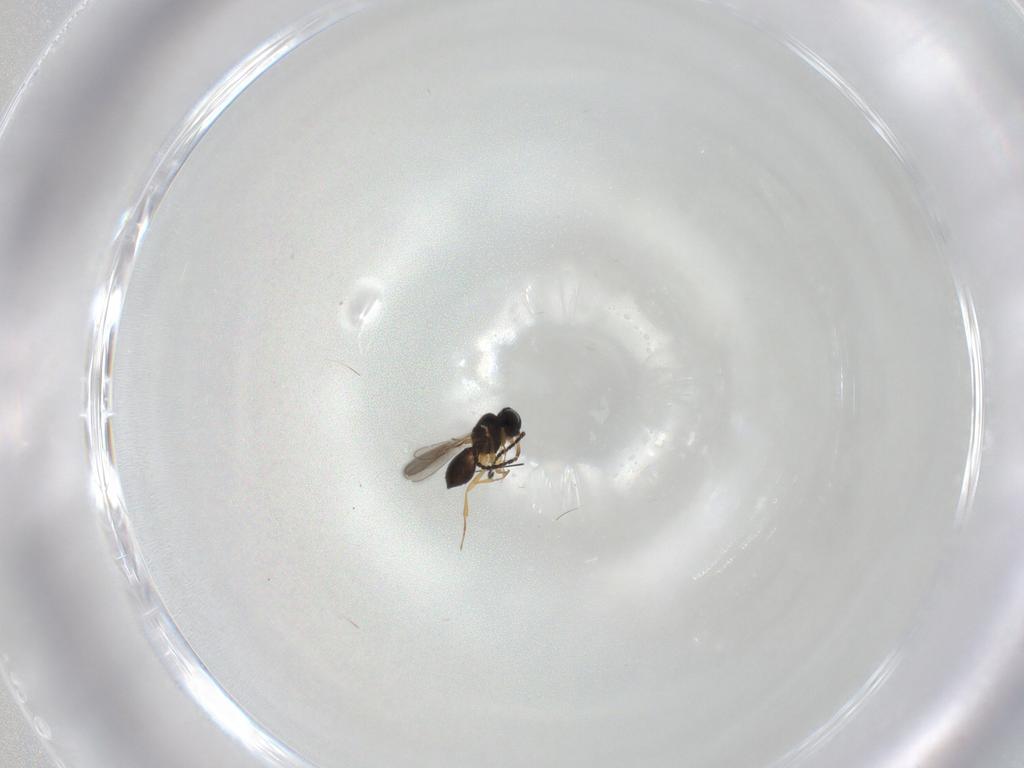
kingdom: Animalia
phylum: Arthropoda
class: Insecta
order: Hymenoptera
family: Scelionidae
